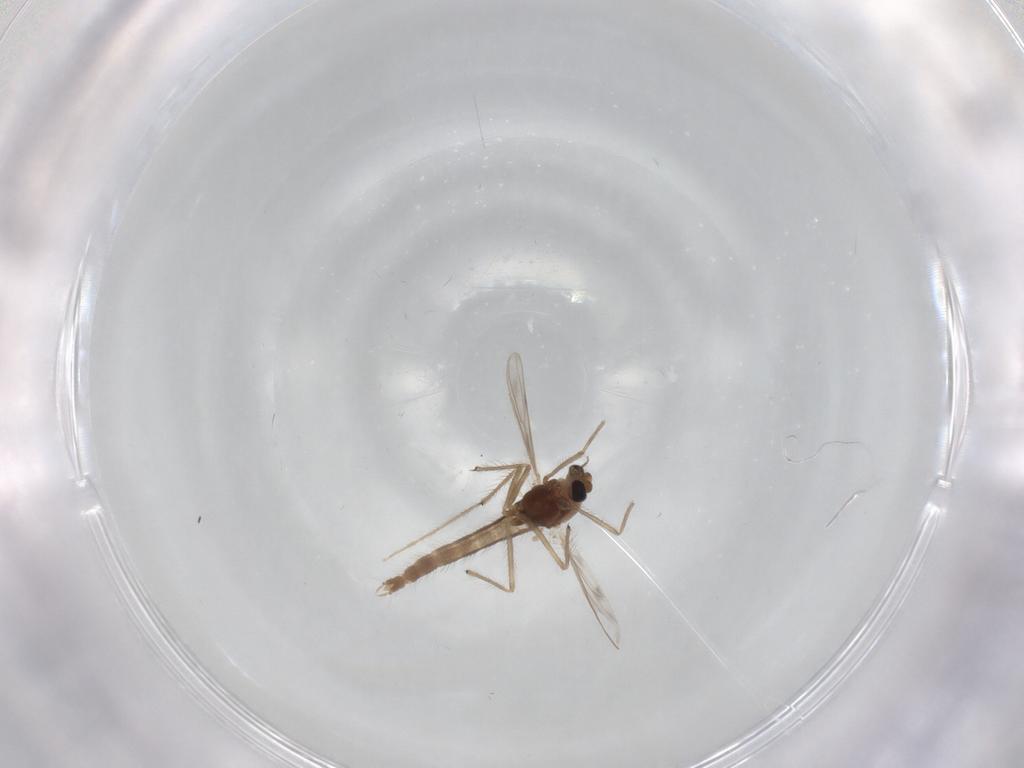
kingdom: Animalia
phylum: Arthropoda
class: Insecta
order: Diptera
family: Chironomidae
